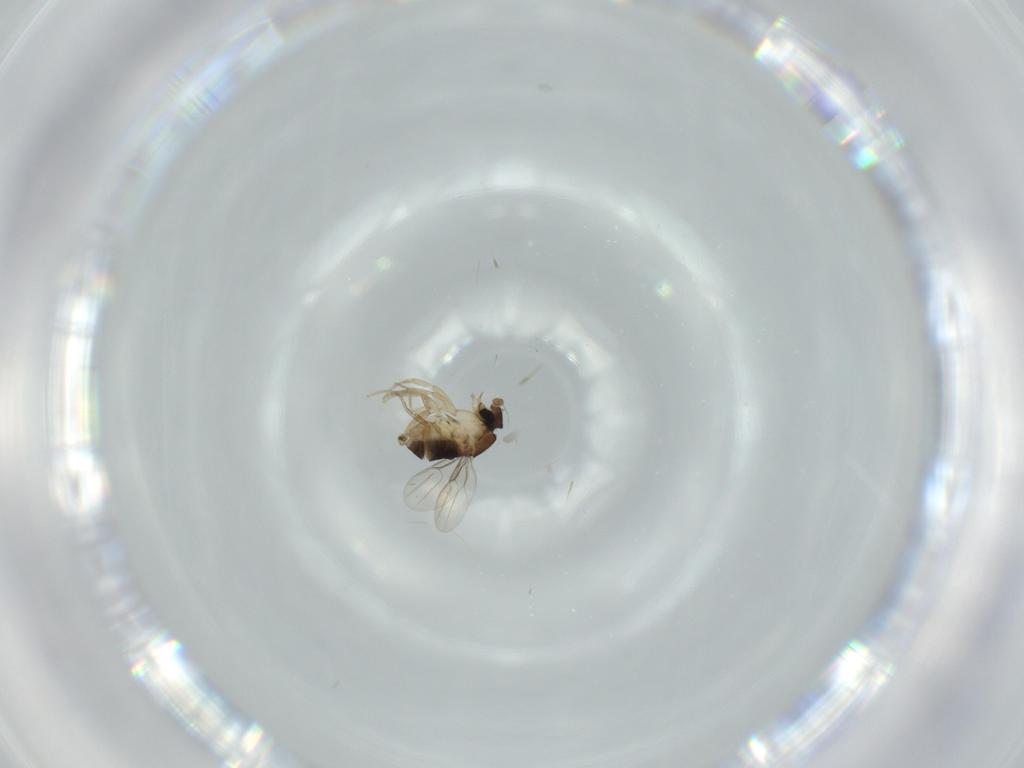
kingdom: Animalia
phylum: Arthropoda
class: Insecta
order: Diptera
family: Phoridae
